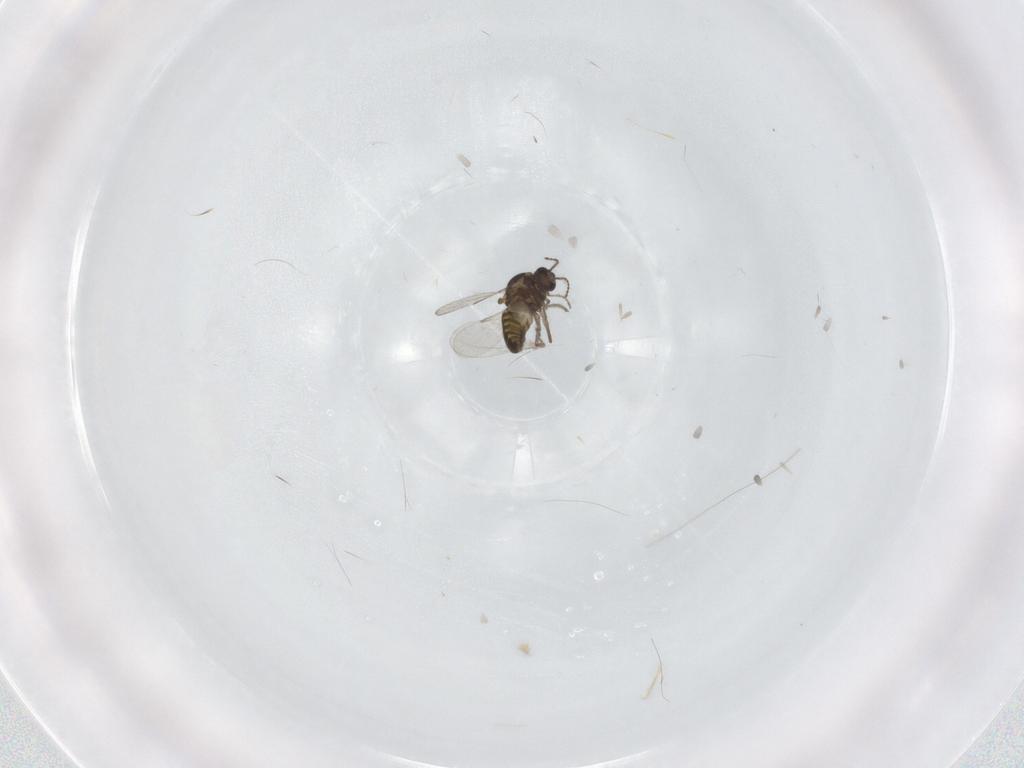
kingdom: Animalia
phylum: Arthropoda
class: Insecta
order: Diptera
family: Ceratopogonidae
